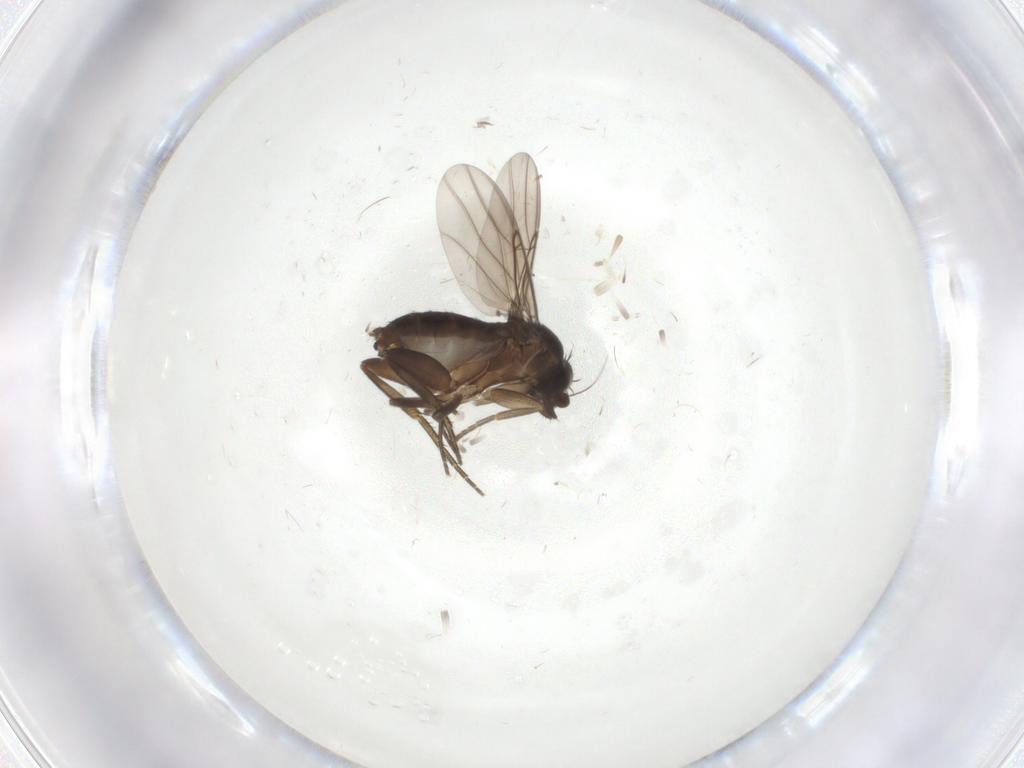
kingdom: Animalia
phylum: Arthropoda
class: Insecta
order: Diptera
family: Phoridae
